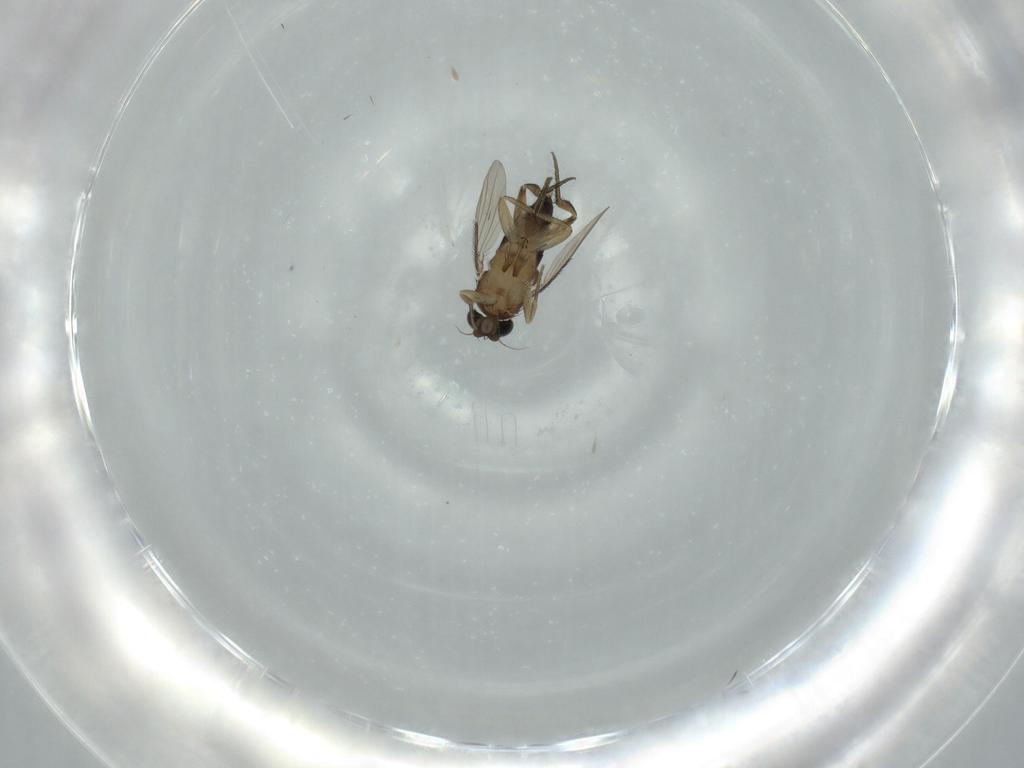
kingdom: Animalia
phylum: Arthropoda
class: Insecta
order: Diptera
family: Phoridae
